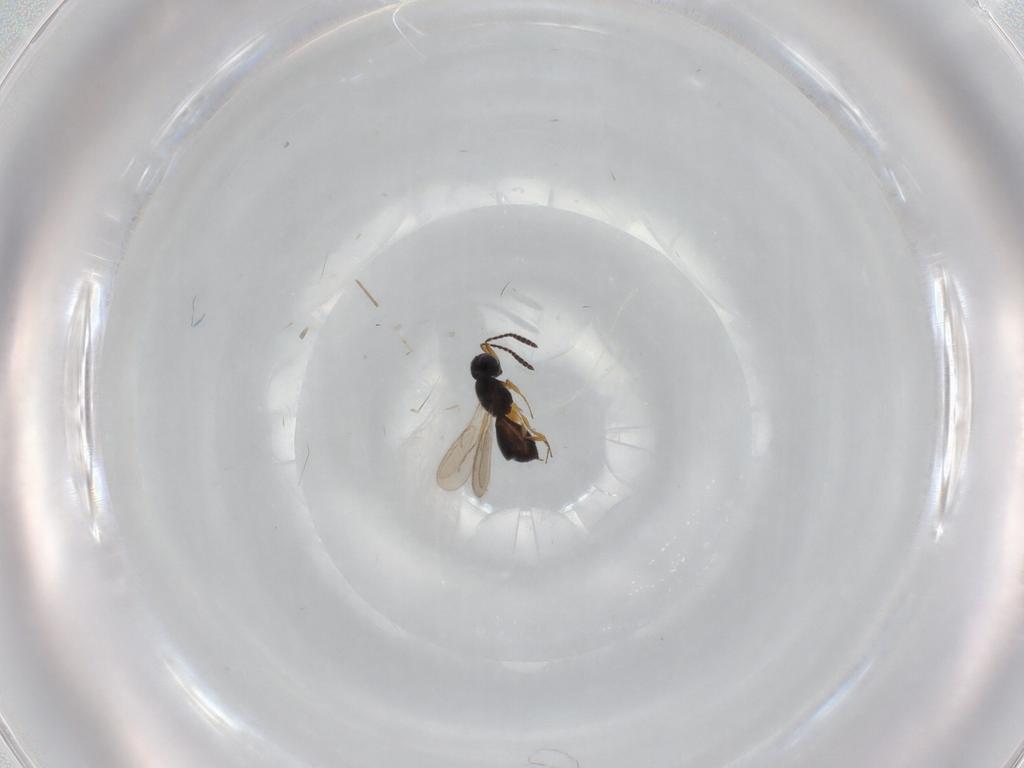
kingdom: Animalia
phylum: Arthropoda
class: Insecta
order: Hymenoptera
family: Scelionidae
